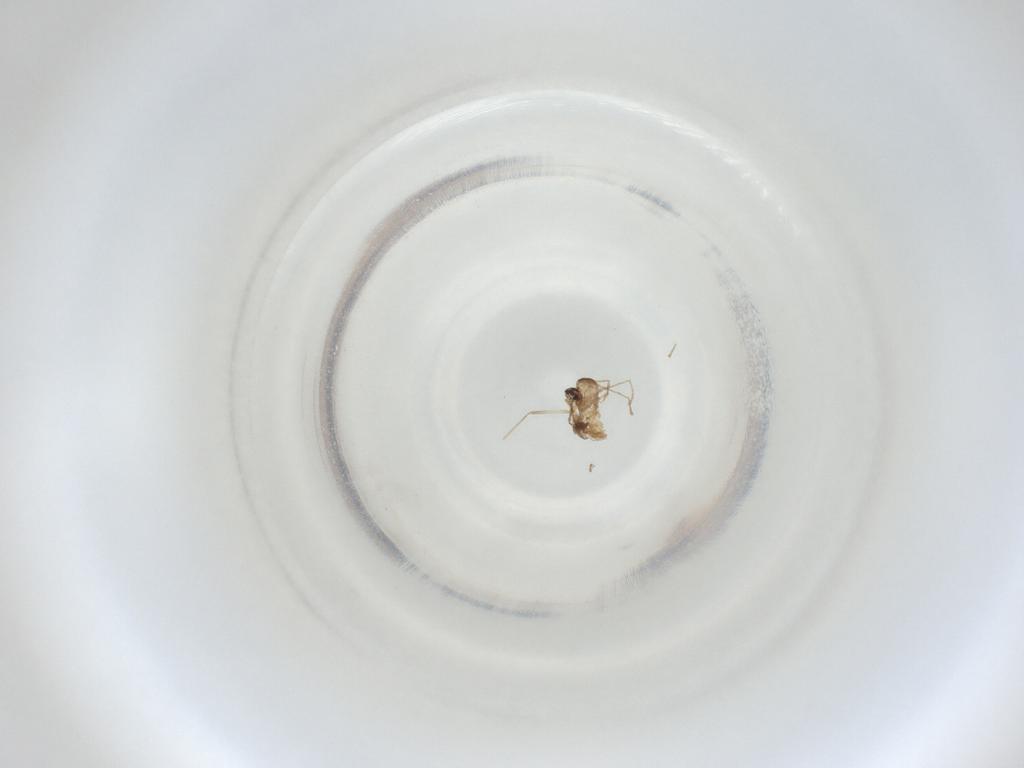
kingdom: Animalia
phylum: Arthropoda
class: Insecta
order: Diptera
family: Cecidomyiidae
